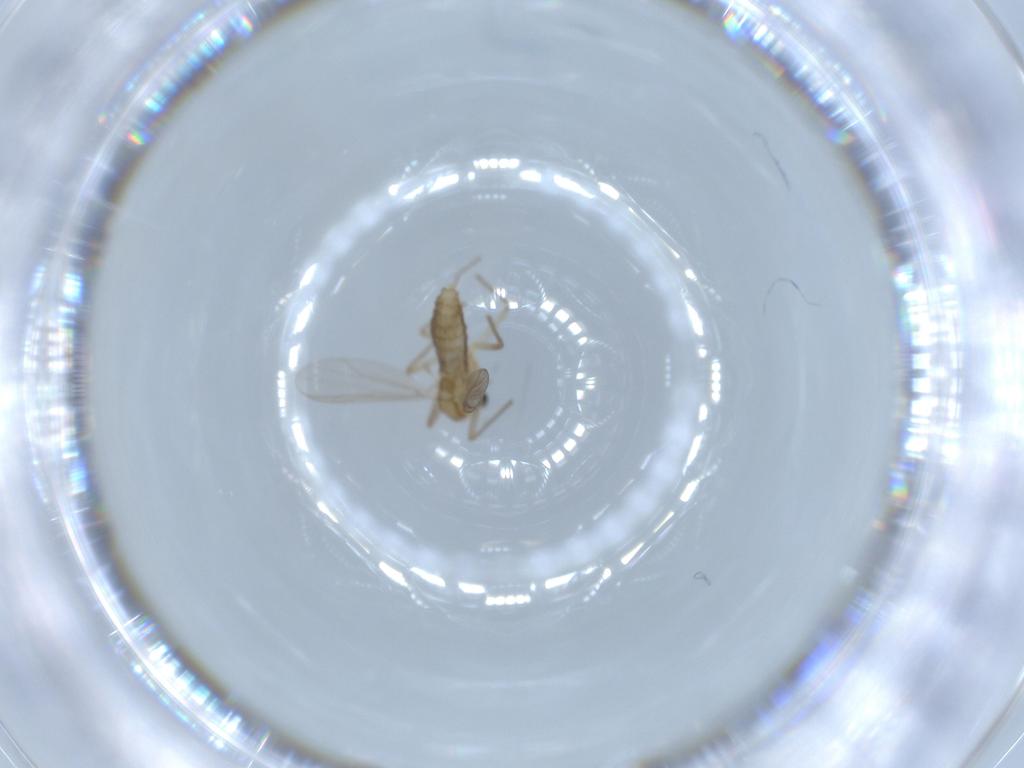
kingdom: Animalia
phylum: Arthropoda
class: Insecta
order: Diptera
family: Chironomidae
